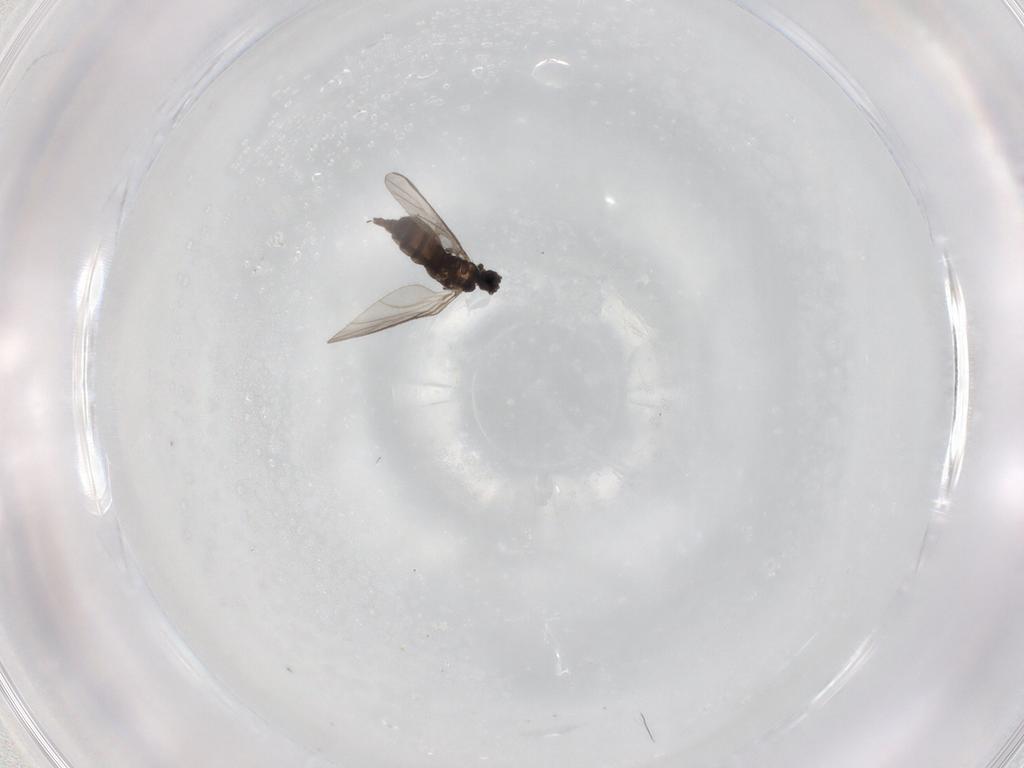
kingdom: Animalia
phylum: Arthropoda
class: Insecta
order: Diptera
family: Sciaridae
